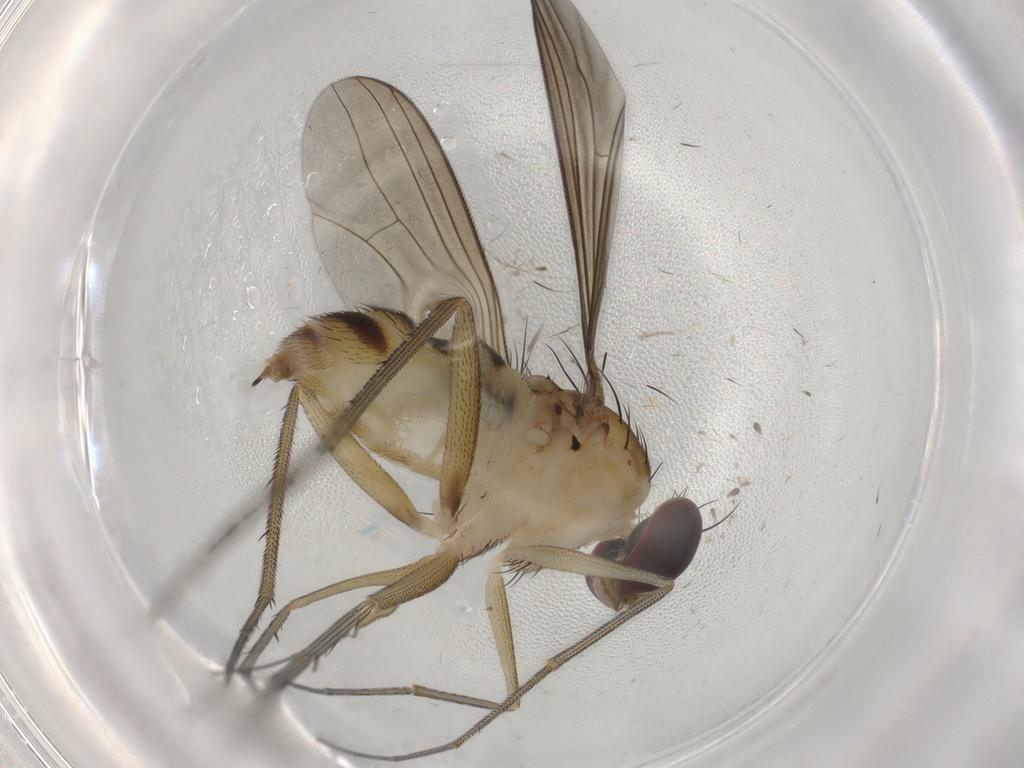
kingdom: Animalia
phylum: Arthropoda
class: Insecta
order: Diptera
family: Dolichopodidae
